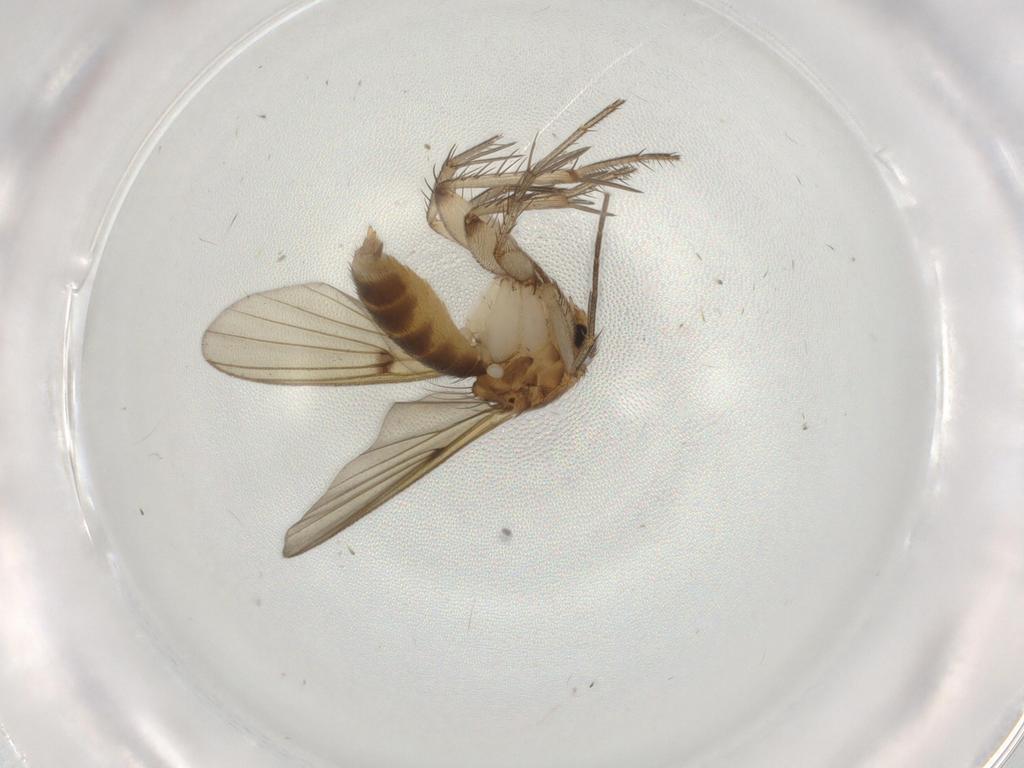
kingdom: Animalia
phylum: Arthropoda
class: Insecta
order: Diptera
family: Mycetophilidae
